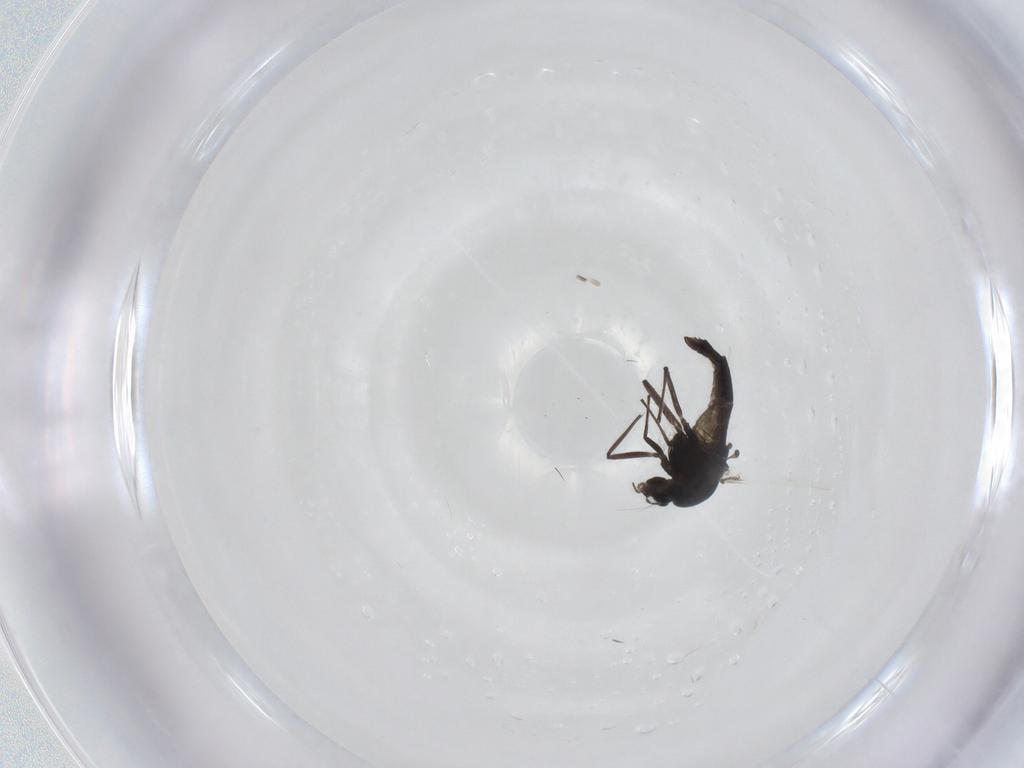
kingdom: Animalia
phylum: Arthropoda
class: Insecta
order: Diptera
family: Chironomidae
